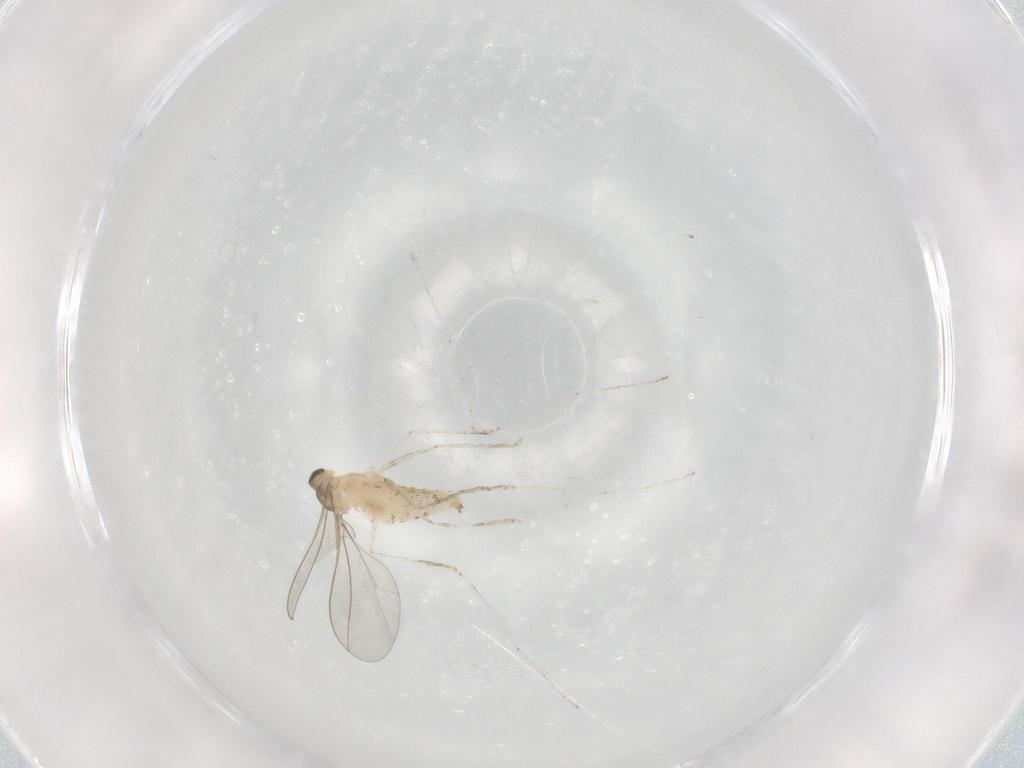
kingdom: Animalia
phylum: Arthropoda
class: Insecta
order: Diptera
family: Cecidomyiidae
